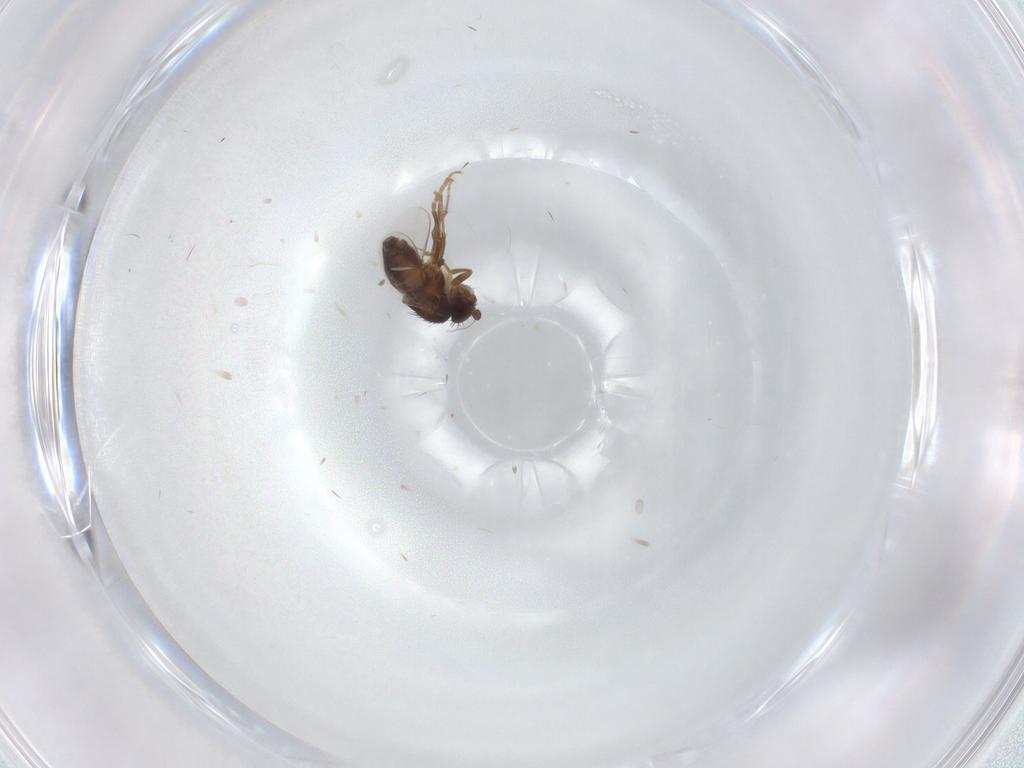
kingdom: Animalia
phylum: Arthropoda
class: Insecta
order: Diptera
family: Sphaeroceridae
